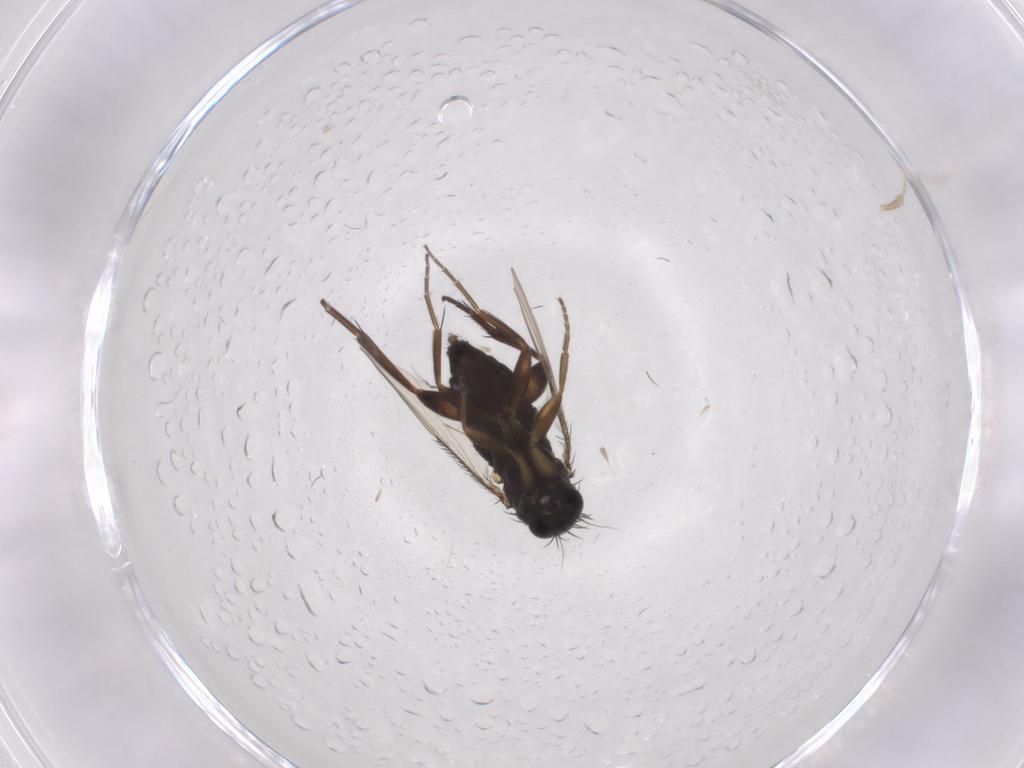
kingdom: Animalia
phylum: Arthropoda
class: Insecta
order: Diptera
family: Phoridae
